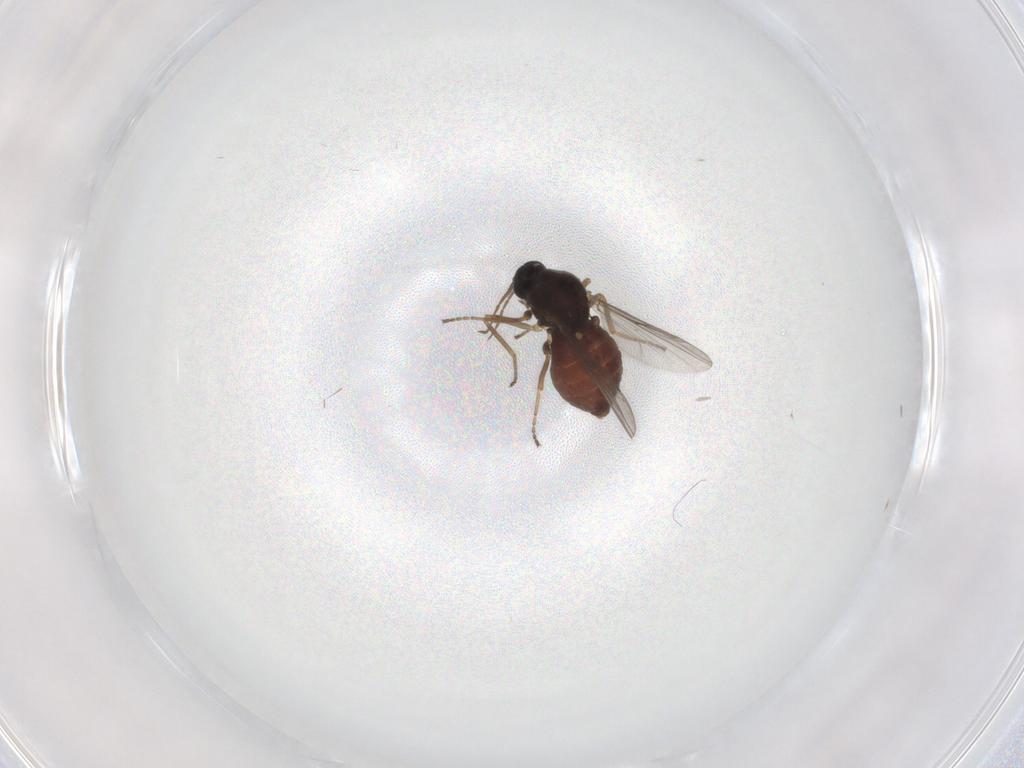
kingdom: Animalia
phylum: Arthropoda
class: Insecta
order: Diptera
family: Ceratopogonidae
